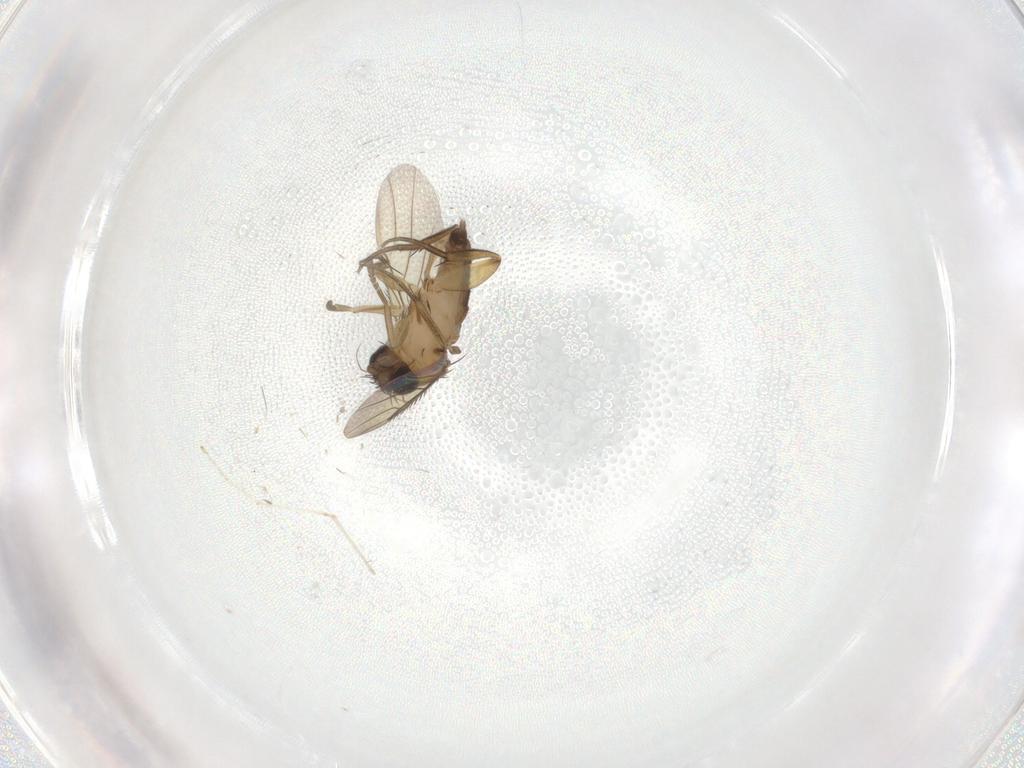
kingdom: Animalia
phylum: Arthropoda
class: Insecta
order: Diptera
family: Phoridae
